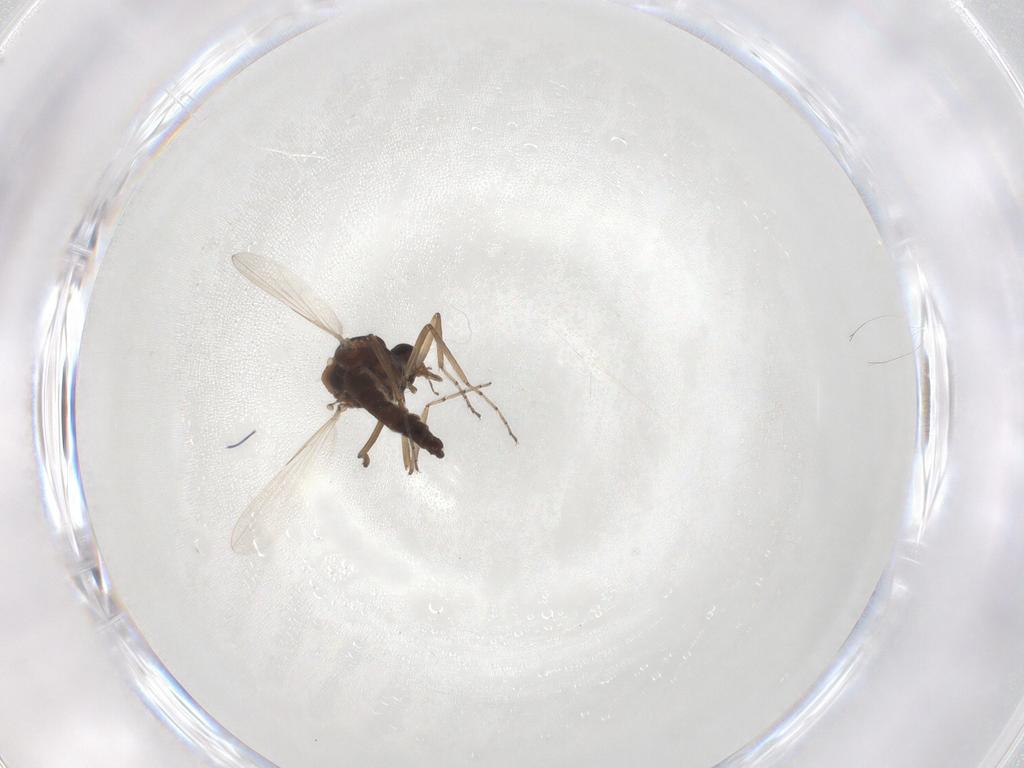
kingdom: Animalia
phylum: Arthropoda
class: Insecta
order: Diptera
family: Ceratopogonidae
